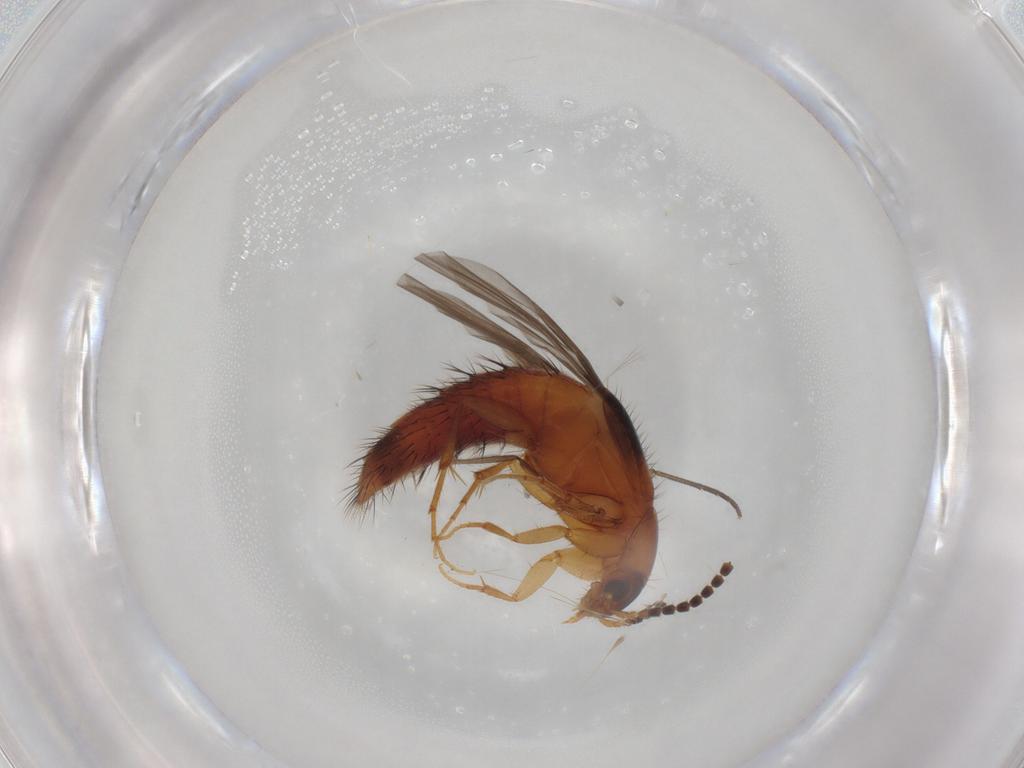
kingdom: Animalia
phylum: Arthropoda
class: Insecta
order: Coleoptera
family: Staphylinidae
